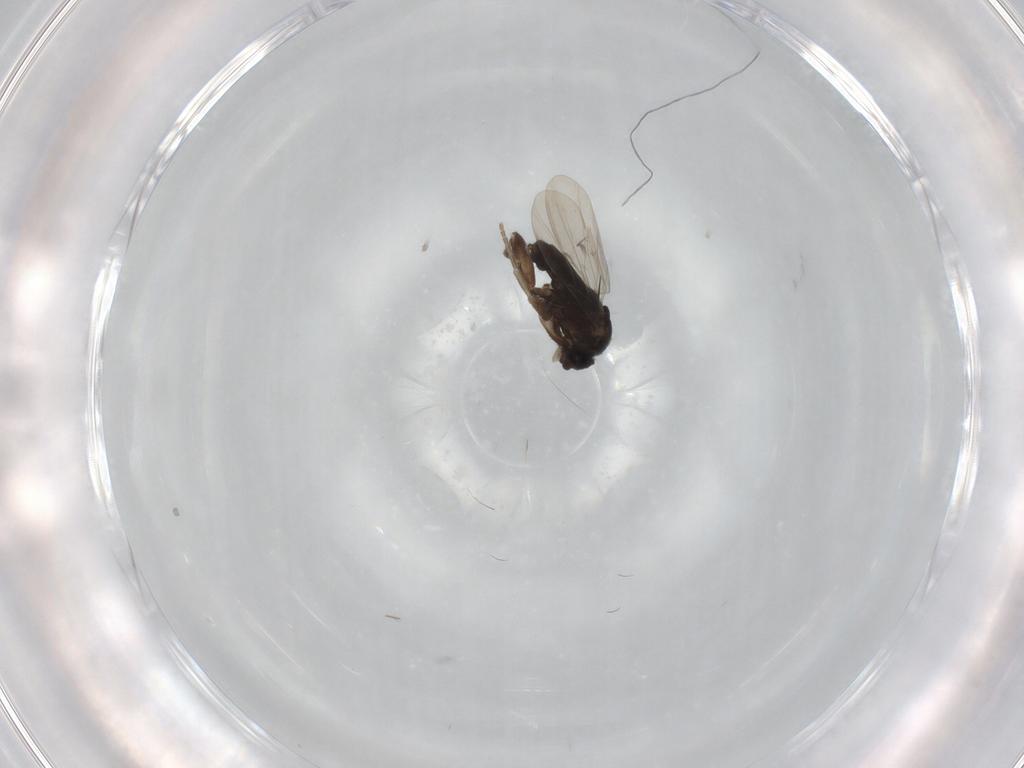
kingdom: Animalia
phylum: Arthropoda
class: Insecta
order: Diptera
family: Phoridae
